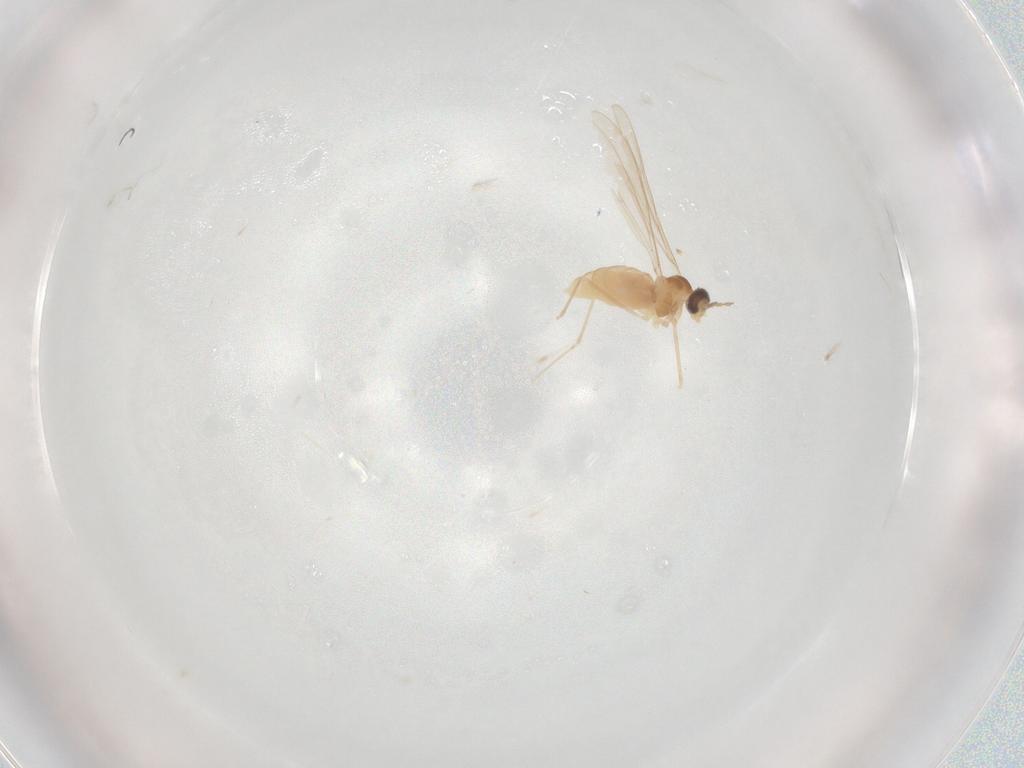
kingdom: Animalia
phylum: Arthropoda
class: Insecta
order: Diptera
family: Cecidomyiidae
